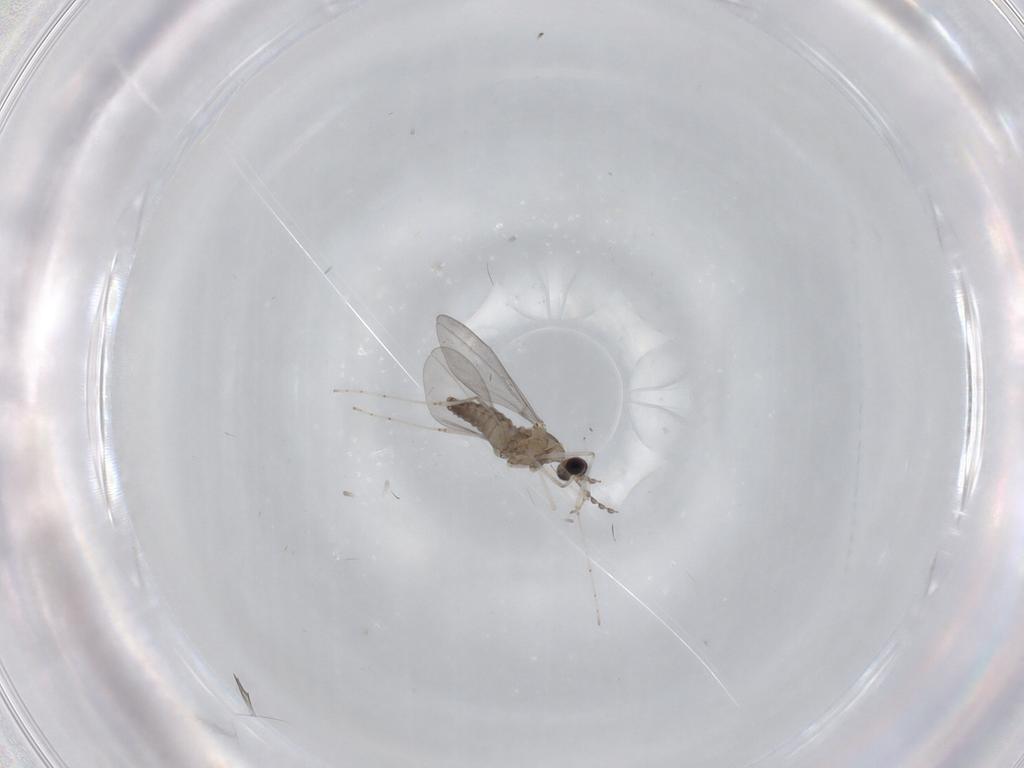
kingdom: Animalia
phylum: Arthropoda
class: Insecta
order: Diptera
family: Cecidomyiidae
